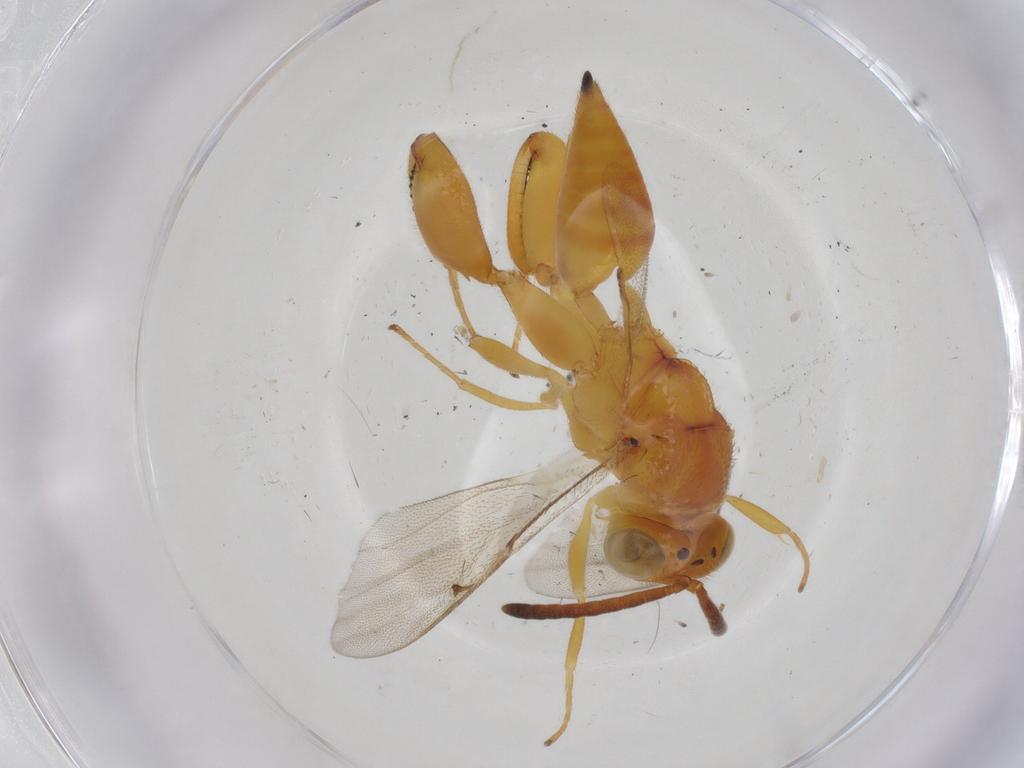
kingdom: Animalia
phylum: Arthropoda
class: Insecta
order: Hymenoptera
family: Chalcididae
